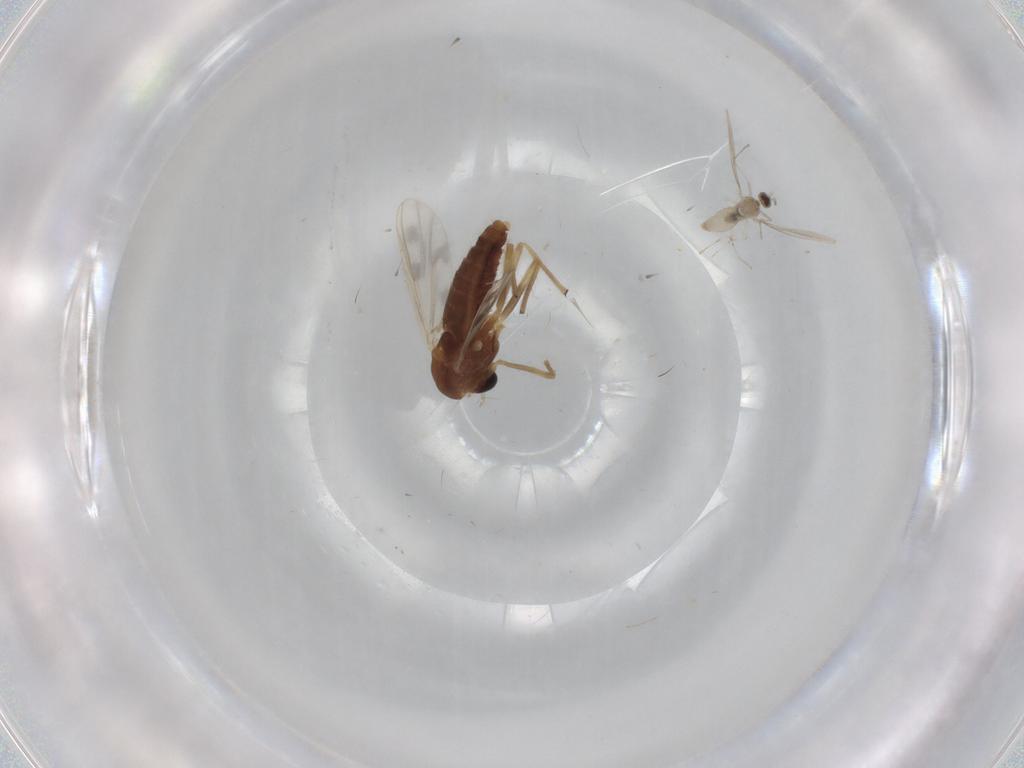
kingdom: Animalia
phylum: Arthropoda
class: Insecta
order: Diptera
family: Chironomidae
